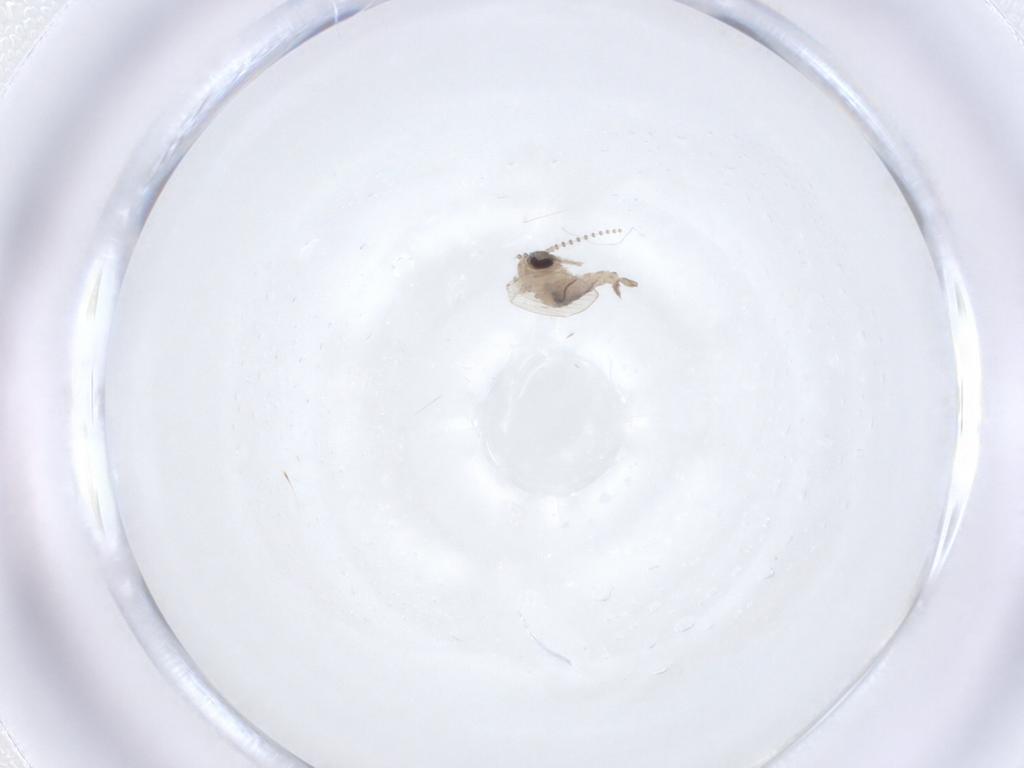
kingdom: Animalia
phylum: Arthropoda
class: Insecta
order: Diptera
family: Psychodidae
